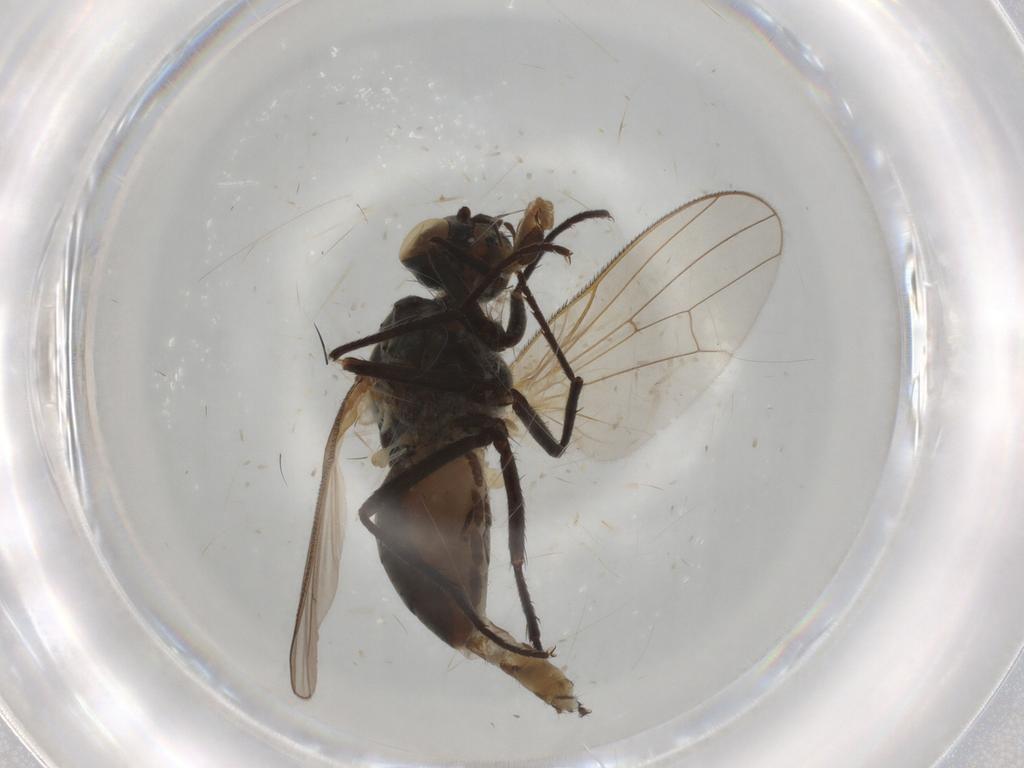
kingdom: Animalia
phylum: Arthropoda
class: Insecta
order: Diptera
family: Anthomyiidae
